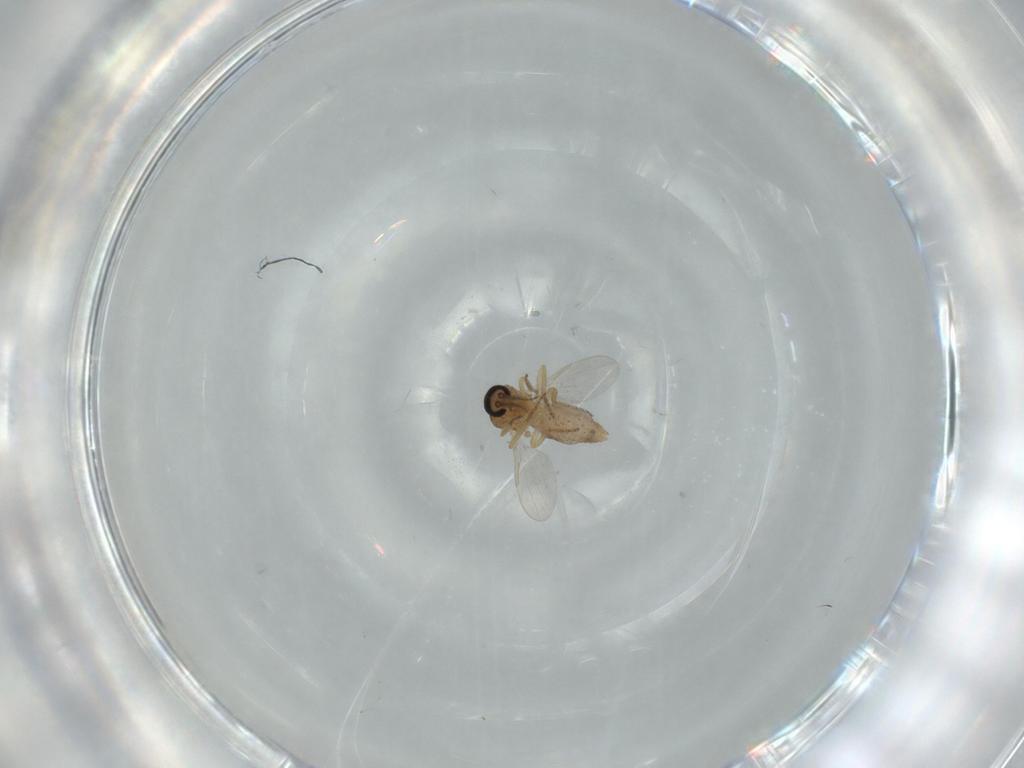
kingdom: Animalia
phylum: Arthropoda
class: Insecta
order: Diptera
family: Ceratopogonidae
